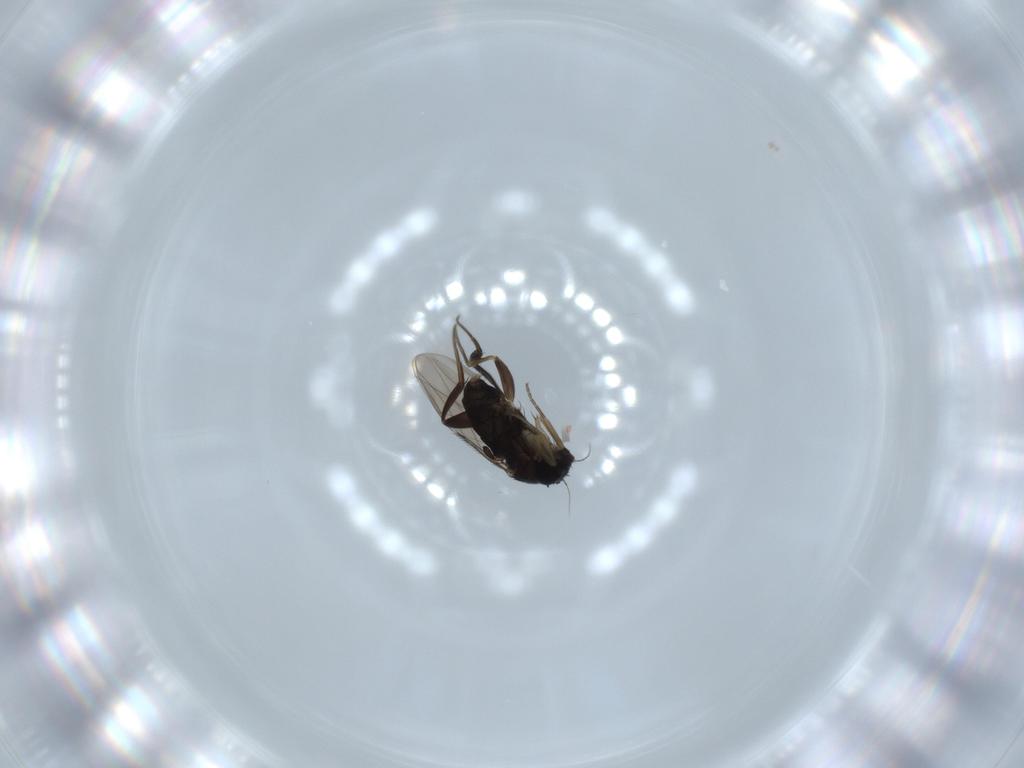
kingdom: Animalia
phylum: Arthropoda
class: Insecta
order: Diptera
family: Phoridae
